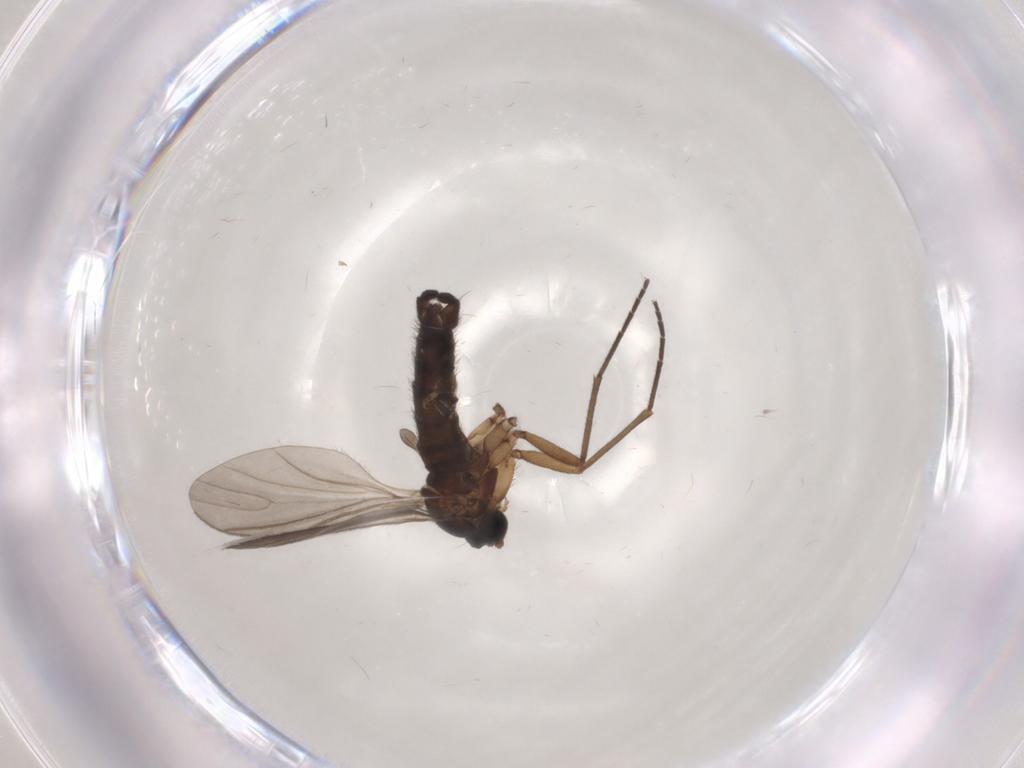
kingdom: Animalia
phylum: Arthropoda
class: Insecta
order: Diptera
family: Sciaridae
